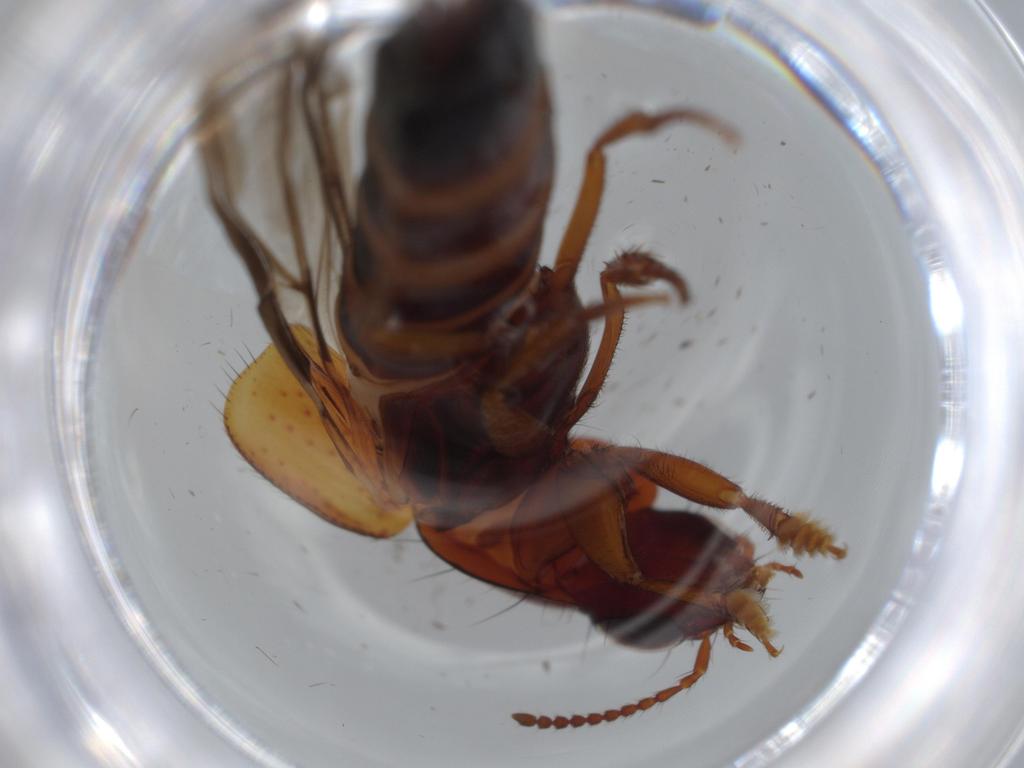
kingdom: Animalia
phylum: Arthropoda
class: Insecta
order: Coleoptera
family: Staphylinidae
